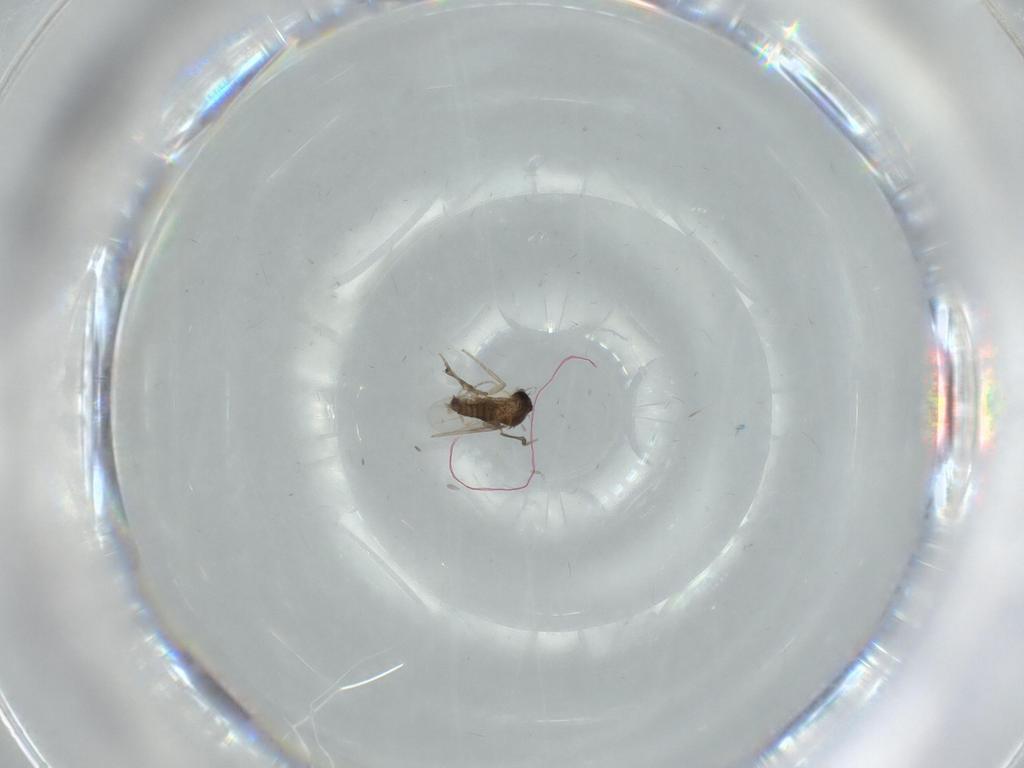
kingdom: Animalia
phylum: Arthropoda
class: Insecta
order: Diptera
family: Phoridae
